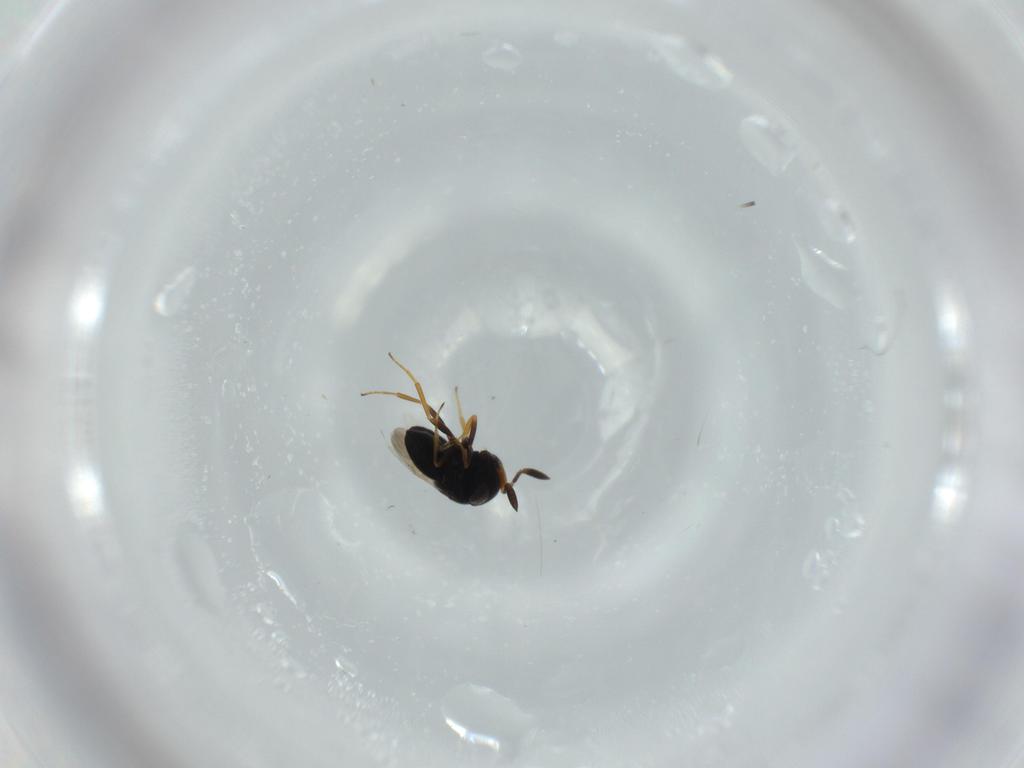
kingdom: Animalia
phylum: Arthropoda
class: Insecta
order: Hymenoptera
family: Scelionidae
